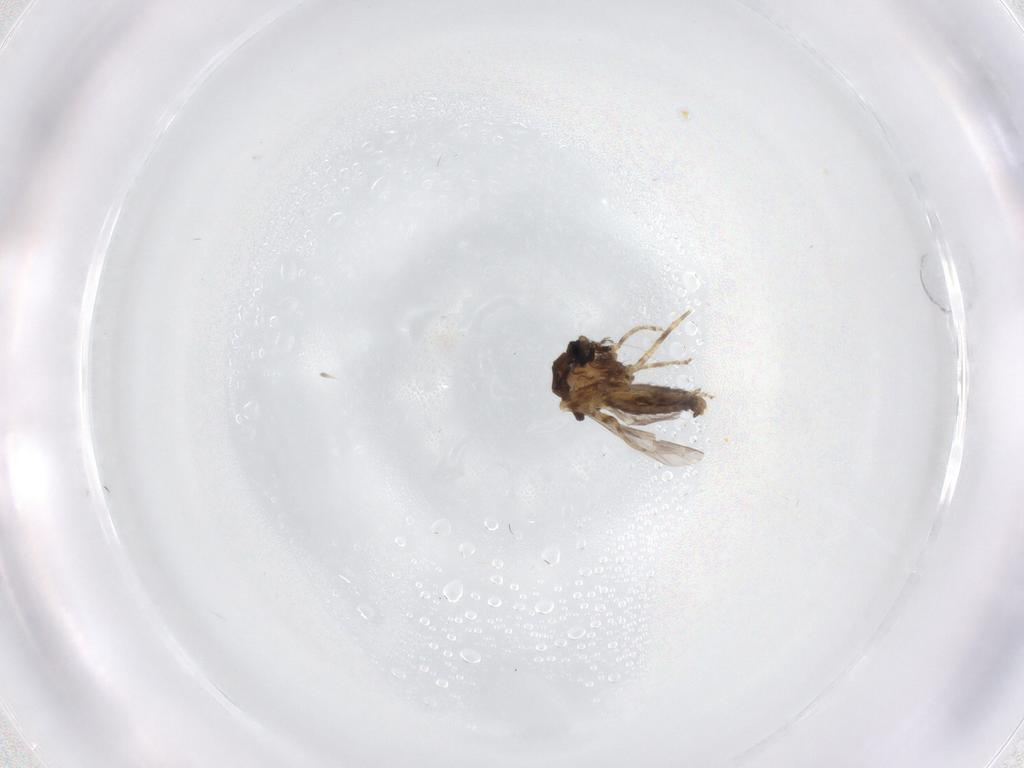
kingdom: Animalia
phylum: Arthropoda
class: Insecta
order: Diptera
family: Ceratopogonidae
